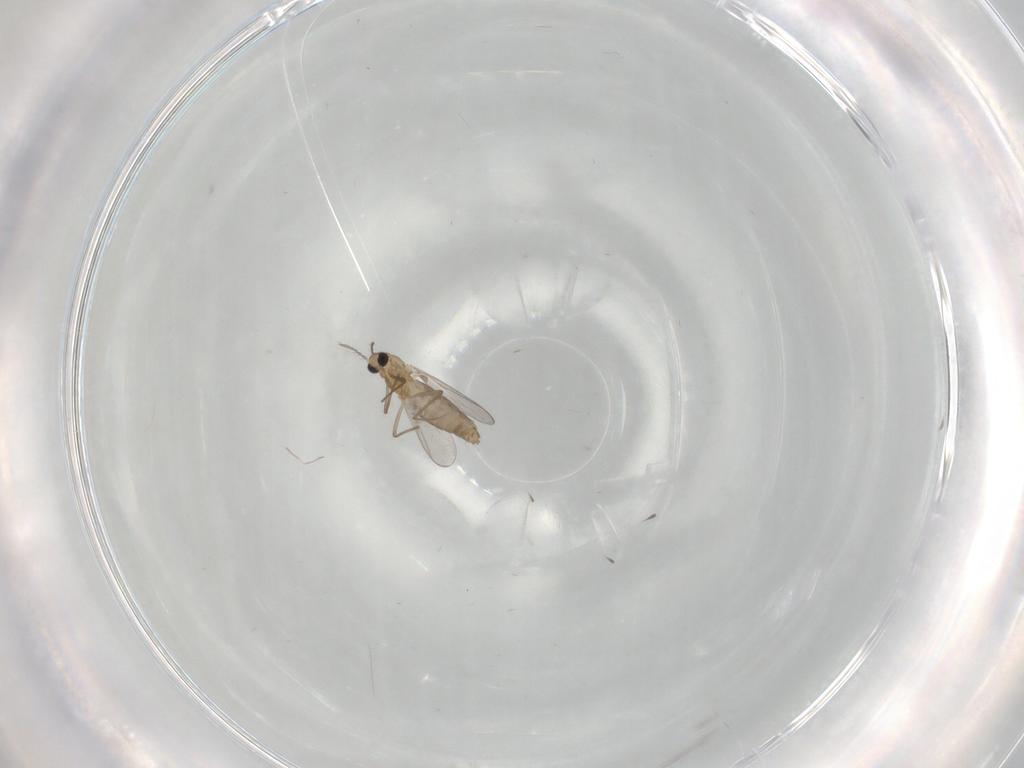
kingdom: Animalia
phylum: Arthropoda
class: Insecta
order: Diptera
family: Chironomidae
